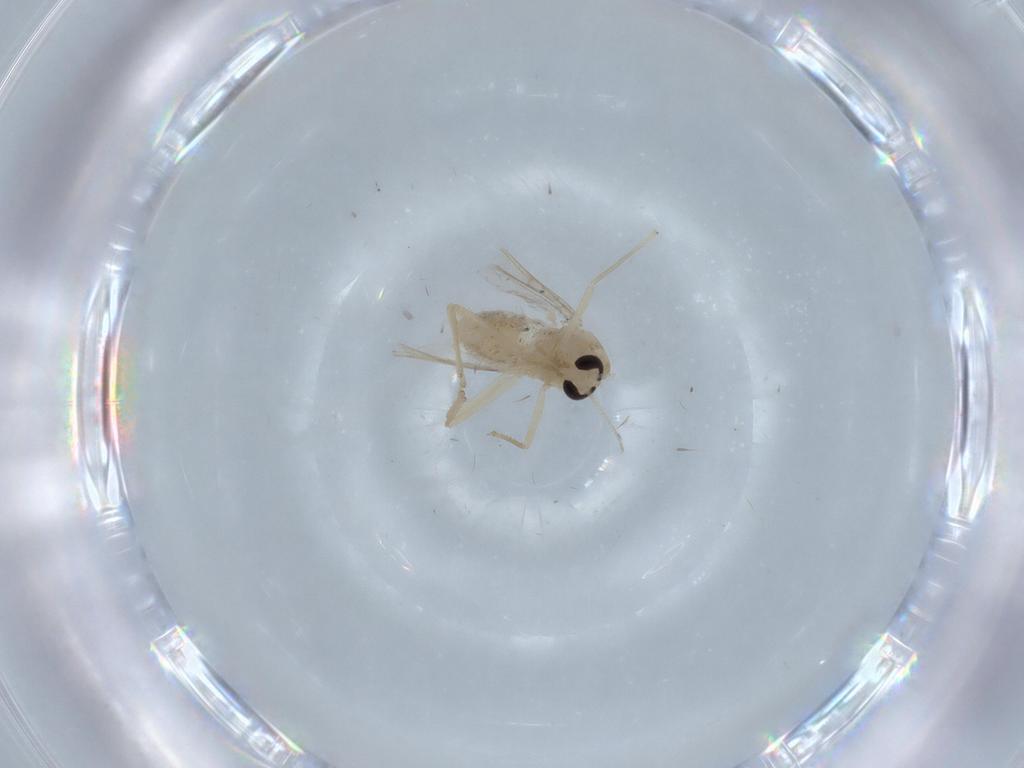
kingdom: Animalia
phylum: Arthropoda
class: Insecta
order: Diptera
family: Chironomidae
